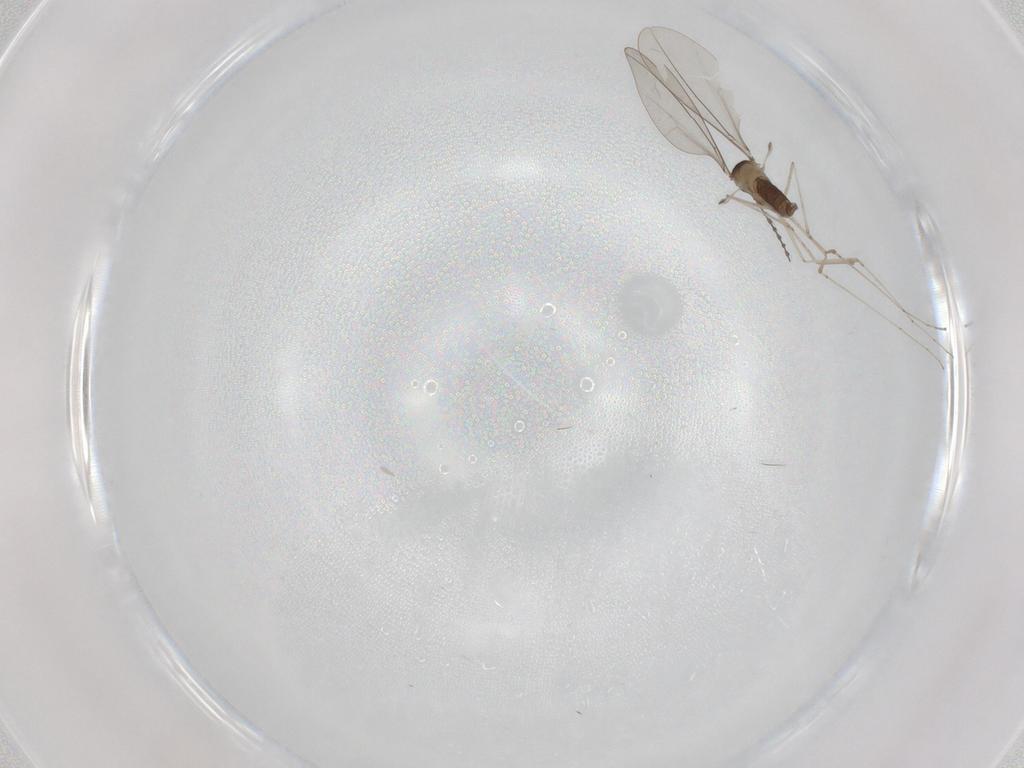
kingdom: Animalia
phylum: Arthropoda
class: Insecta
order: Diptera
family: Cecidomyiidae
